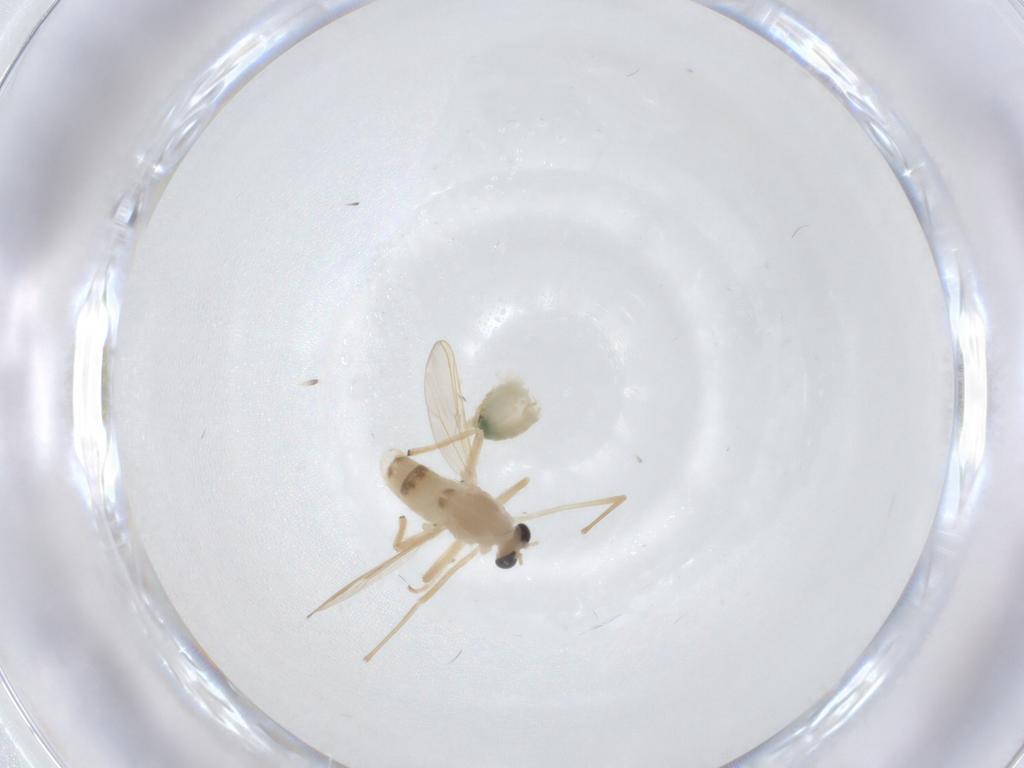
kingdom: Animalia
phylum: Arthropoda
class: Insecta
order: Diptera
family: Chironomidae
